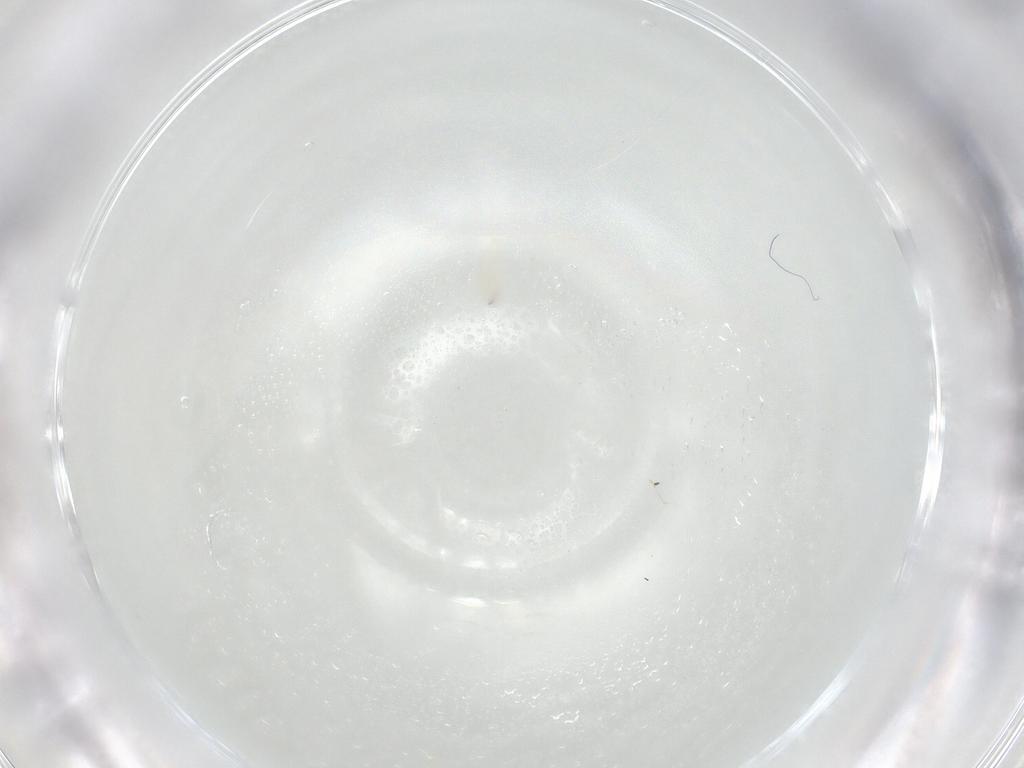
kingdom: Animalia
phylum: Arthropoda
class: Insecta
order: Diptera
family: Tachinidae
